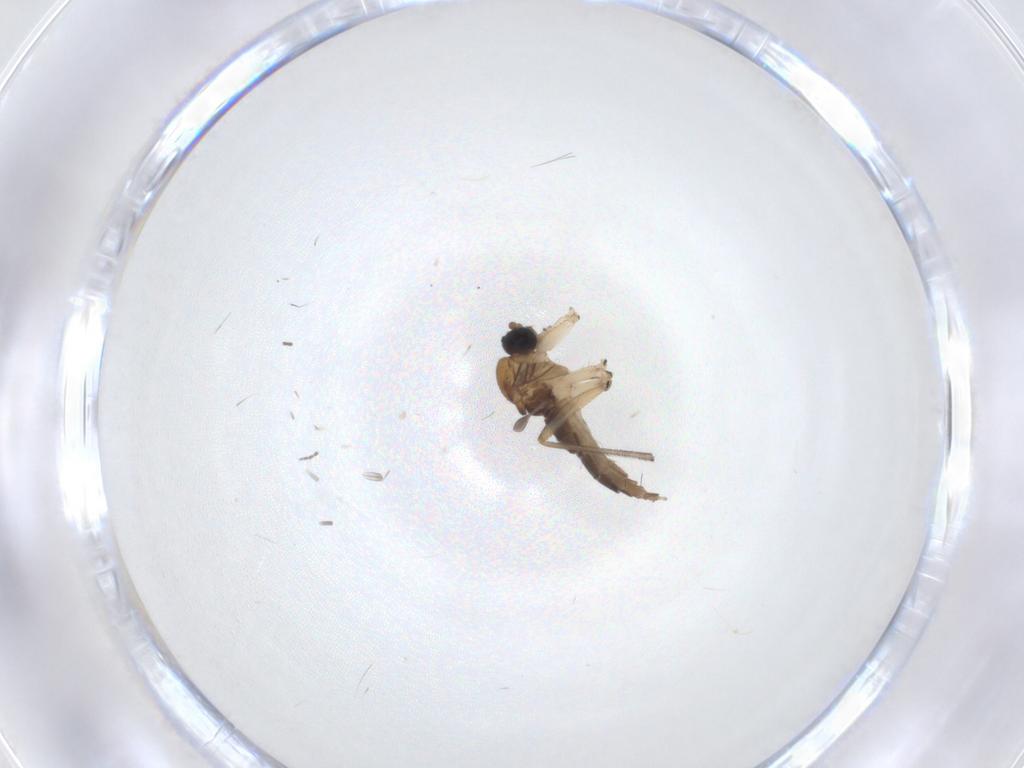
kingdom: Animalia
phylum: Arthropoda
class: Insecta
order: Diptera
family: Sciaridae
